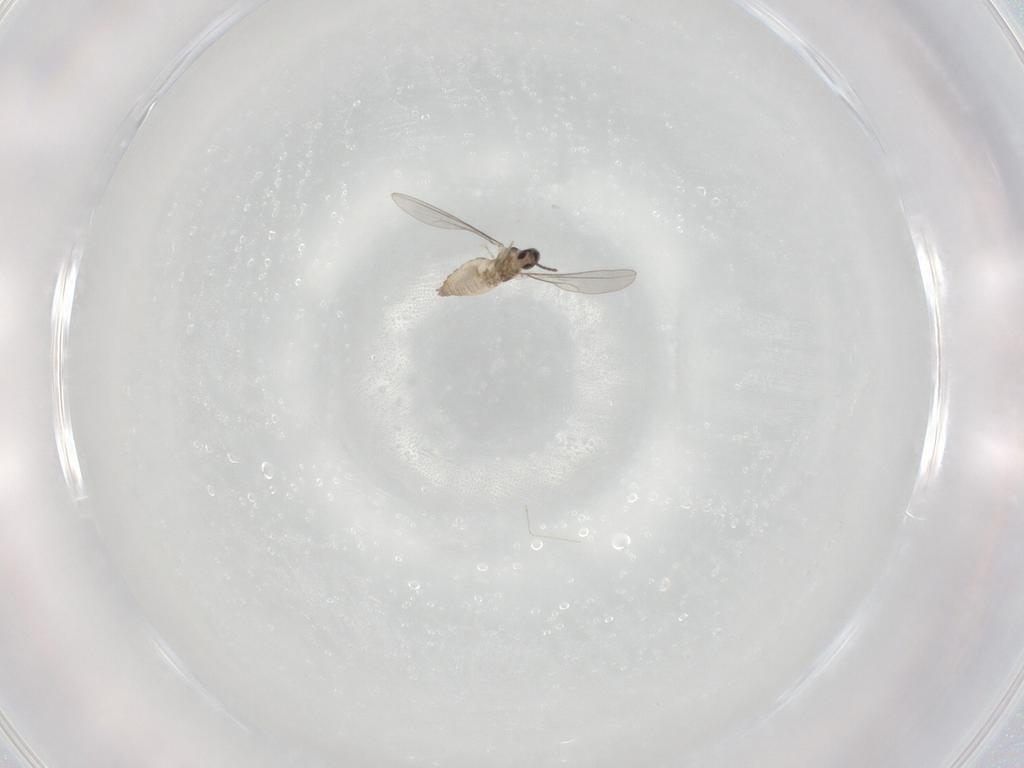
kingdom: Animalia
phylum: Arthropoda
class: Insecta
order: Diptera
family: Cecidomyiidae
